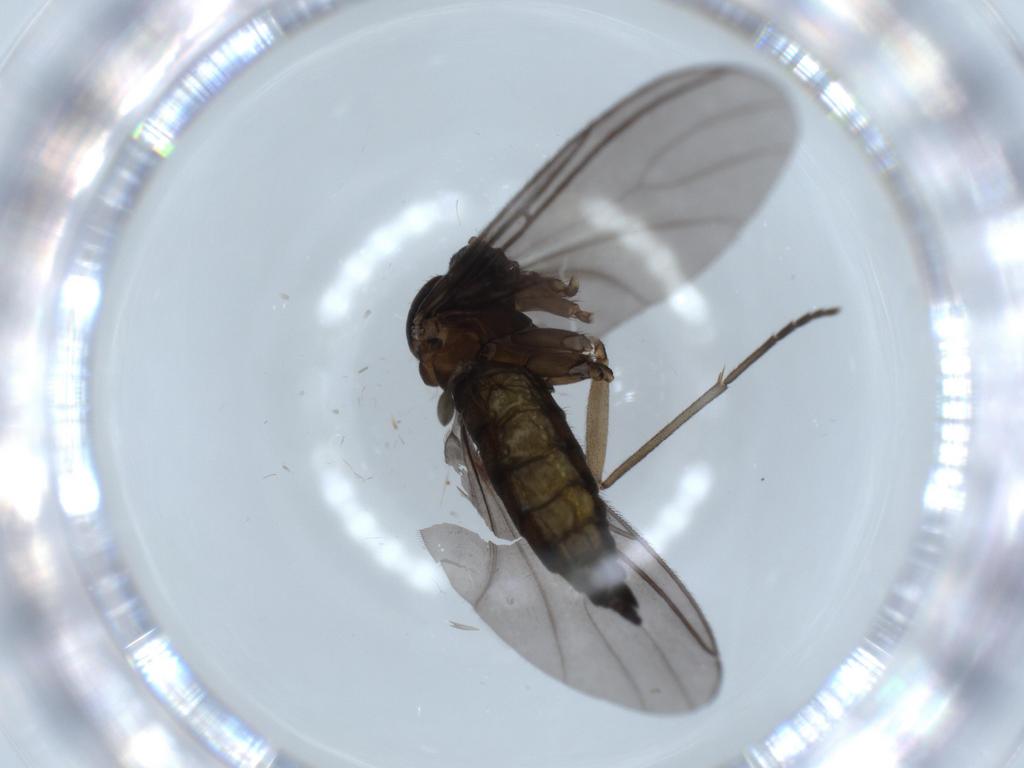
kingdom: Animalia
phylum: Arthropoda
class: Insecta
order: Diptera
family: Sciaridae
